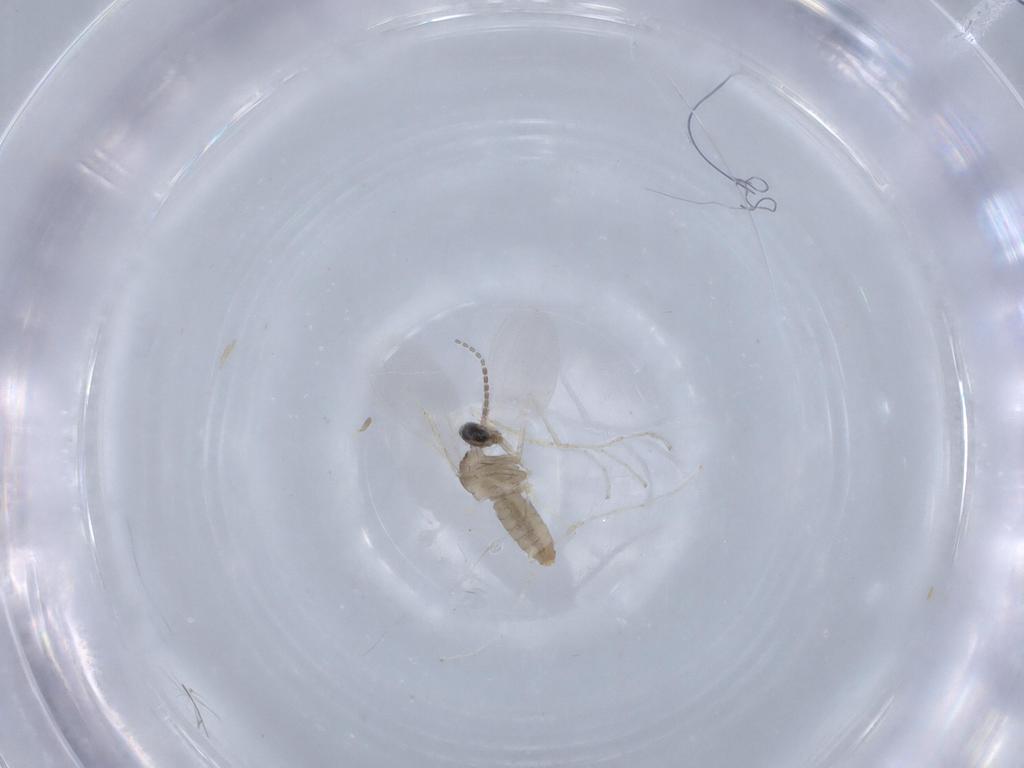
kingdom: Animalia
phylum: Arthropoda
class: Insecta
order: Diptera
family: Cecidomyiidae
